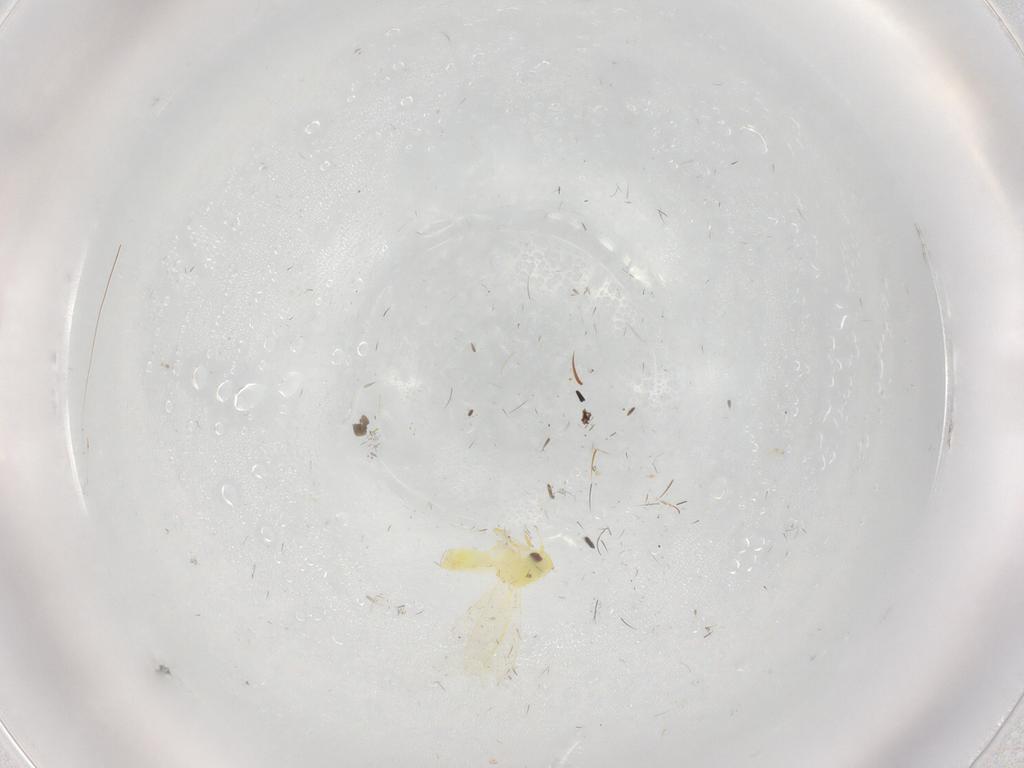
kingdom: Animalia
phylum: Arthropoda
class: Insecta
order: Hemiptera
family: Aleyrodidae
